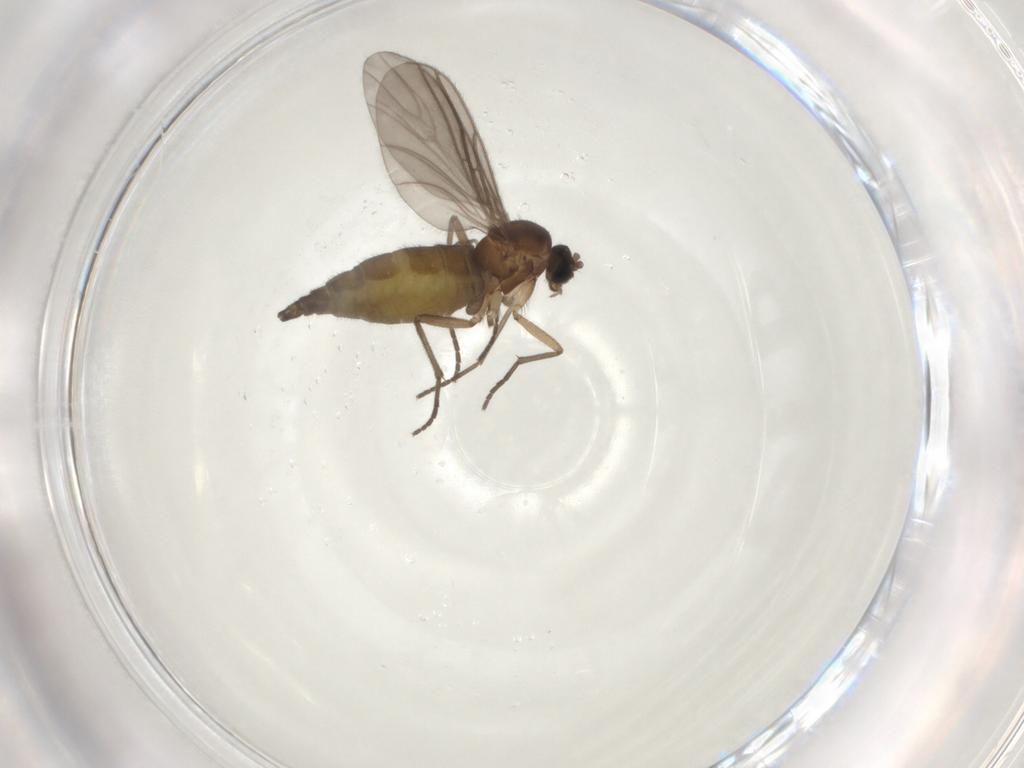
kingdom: Animalia
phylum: Arthropoda
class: Insecta
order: Diptera
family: Sciaridae
